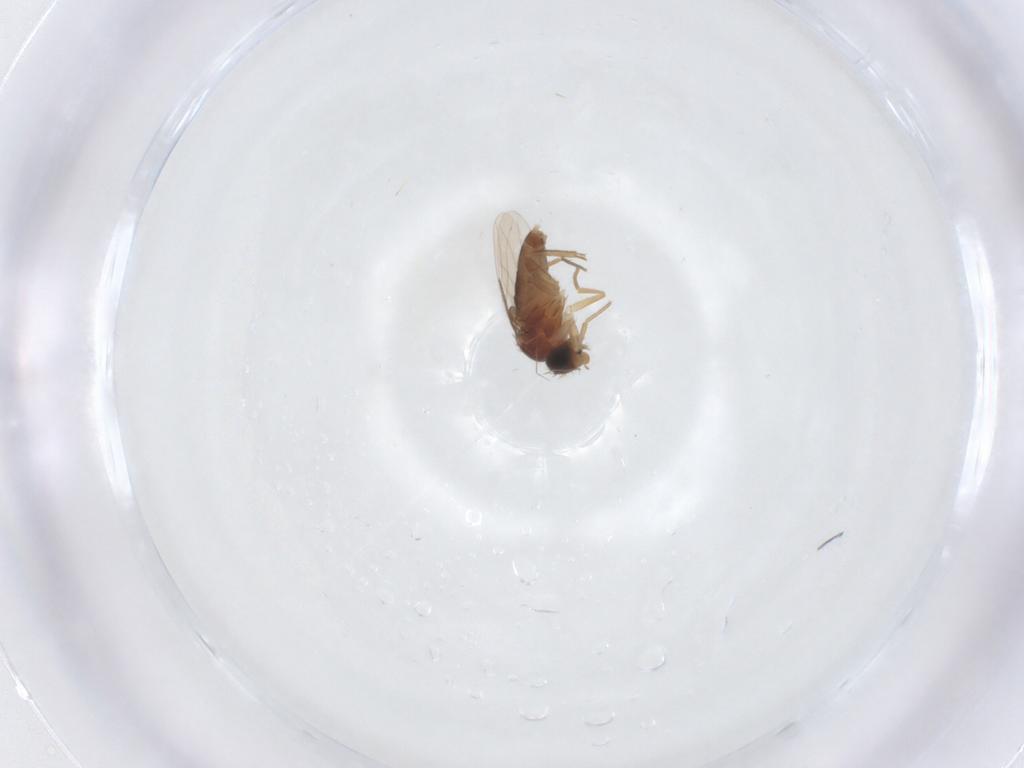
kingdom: Animalia
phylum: Arthropoda
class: Insecta
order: Diptera
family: Phoridae
